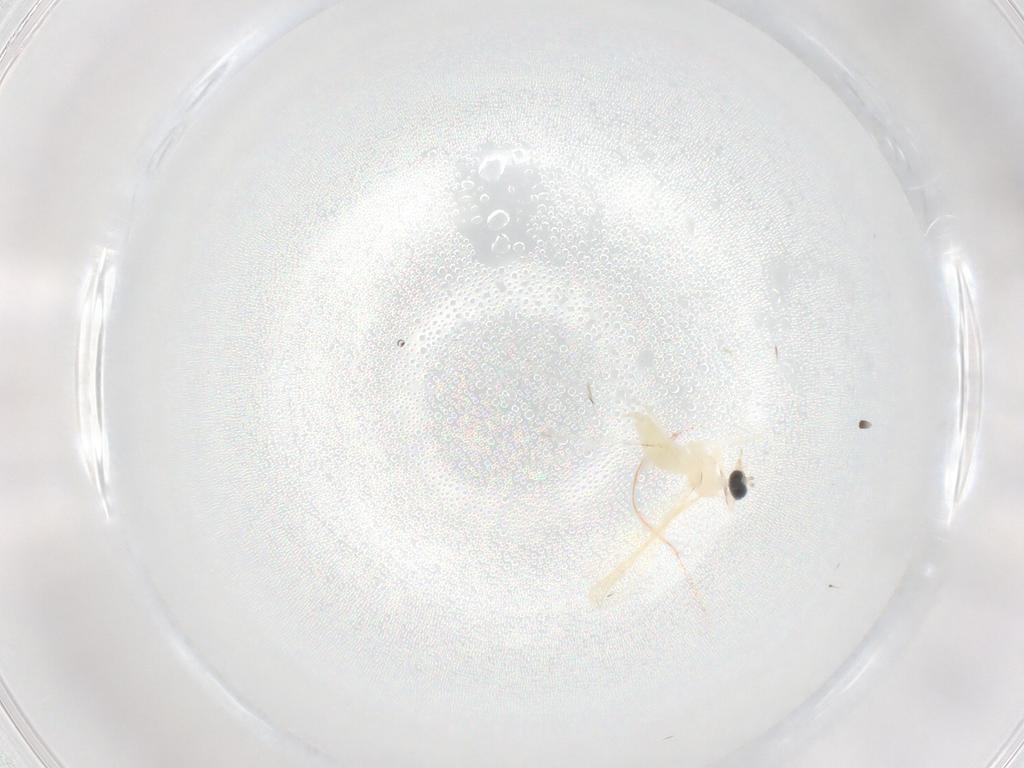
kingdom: Animalia
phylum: Arthropoda
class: Insecta
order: Diptera
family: Cecidomyiidae
